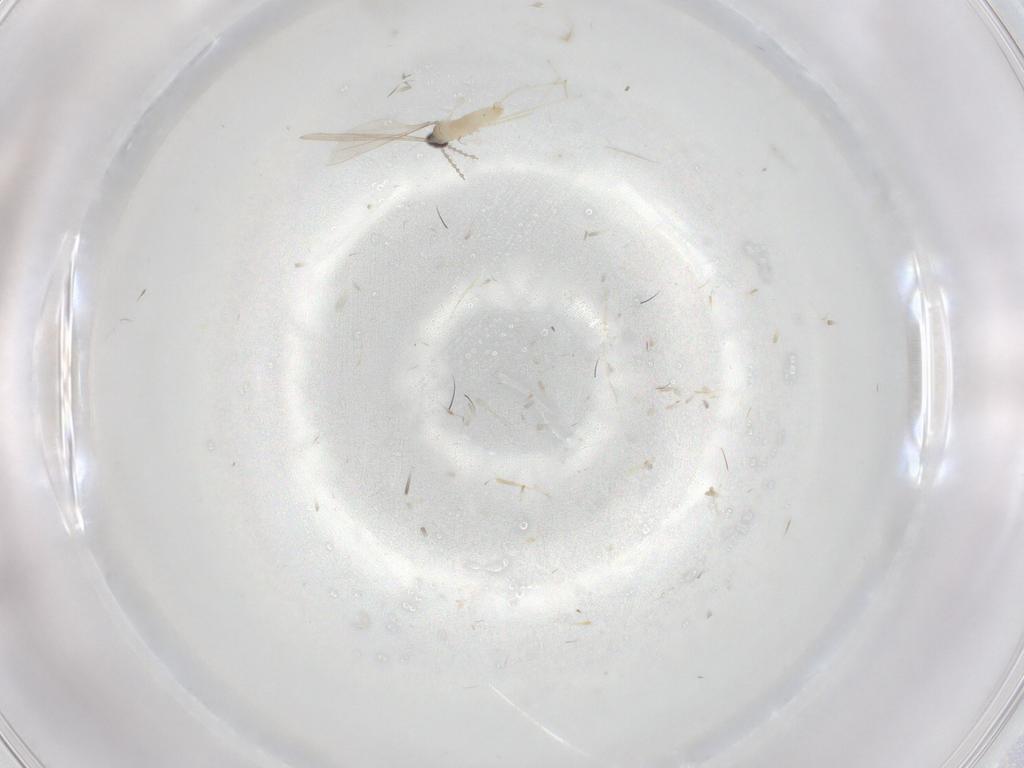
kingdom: Animalia
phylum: Arthropoda
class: Insecta
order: Diptera
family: Cecidomyiidae
